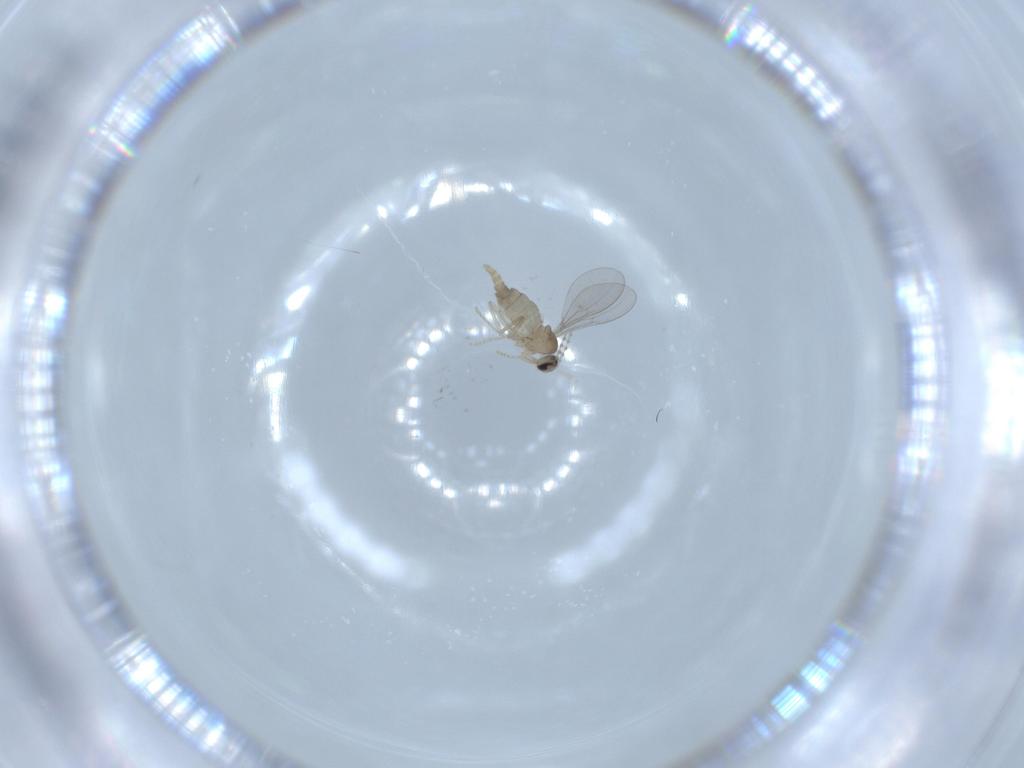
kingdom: Animalia
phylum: Arthropoda
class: Insecta
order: Diptera
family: Cecidomyiidae
